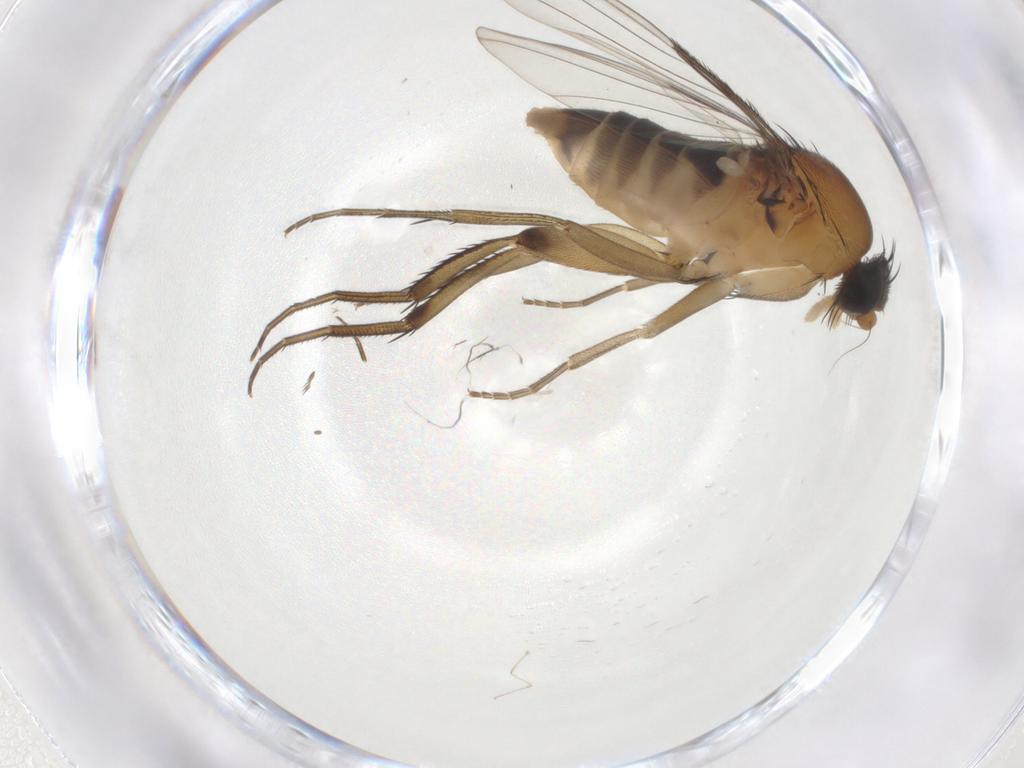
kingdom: Animalia
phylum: Arthropoda
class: Insecta
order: Diptera
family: Phoridae
